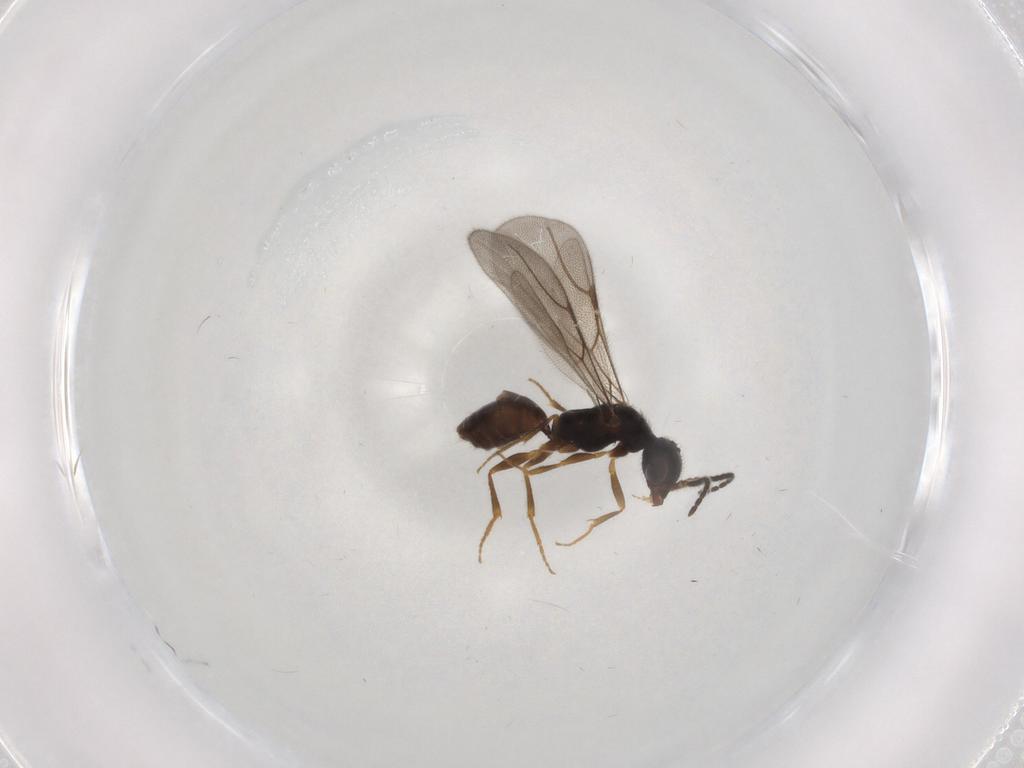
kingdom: Animalia
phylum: Arthropoda
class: Insecta
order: Hymenoptera
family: Bethylidae
